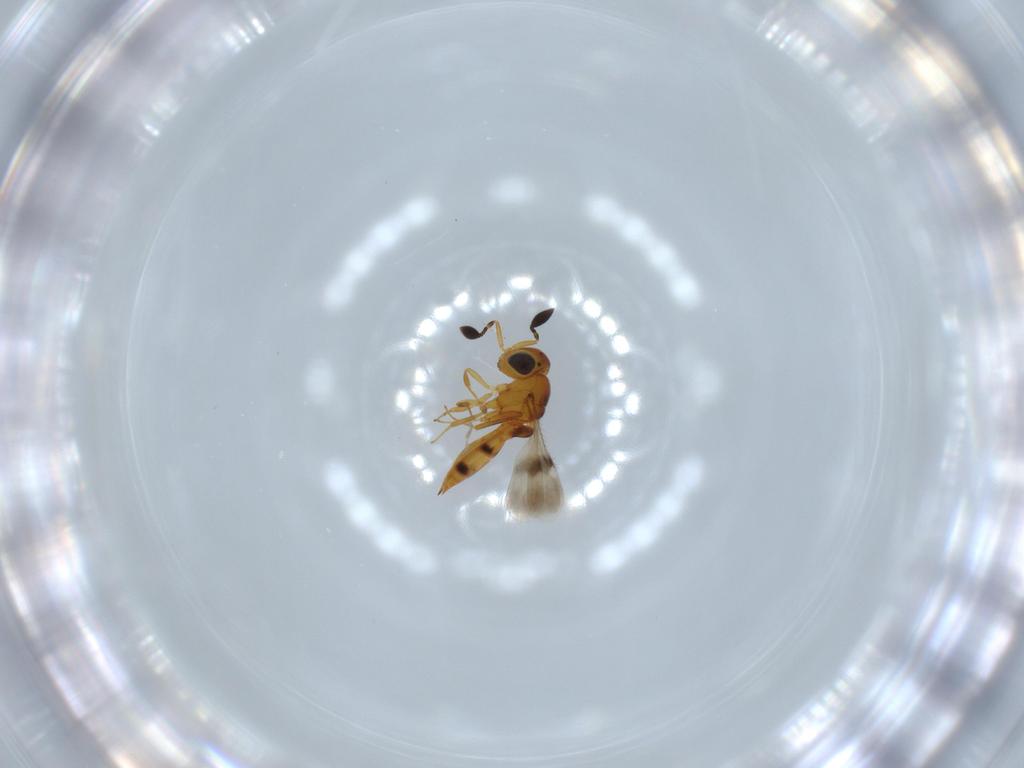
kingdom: Animalia
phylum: Arthropoda
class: Insecta
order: Hymenoptera
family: Scelionidae
